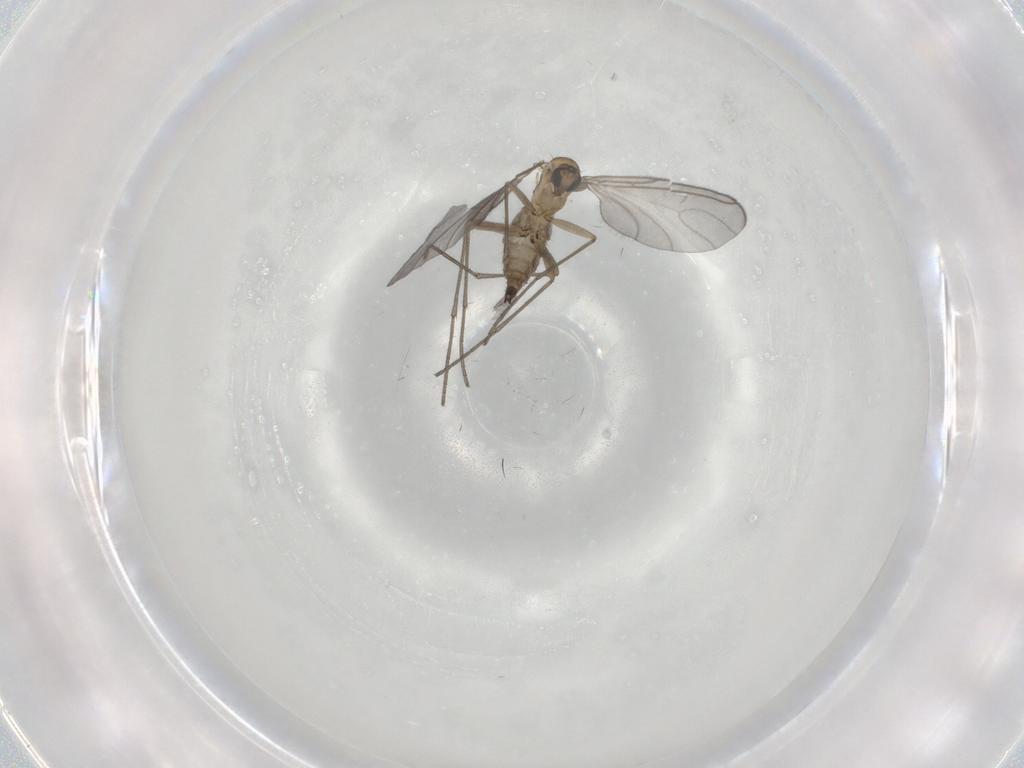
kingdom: Animalia
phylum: Arthropoda
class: Insecta
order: Diptera
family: Sciaridae
